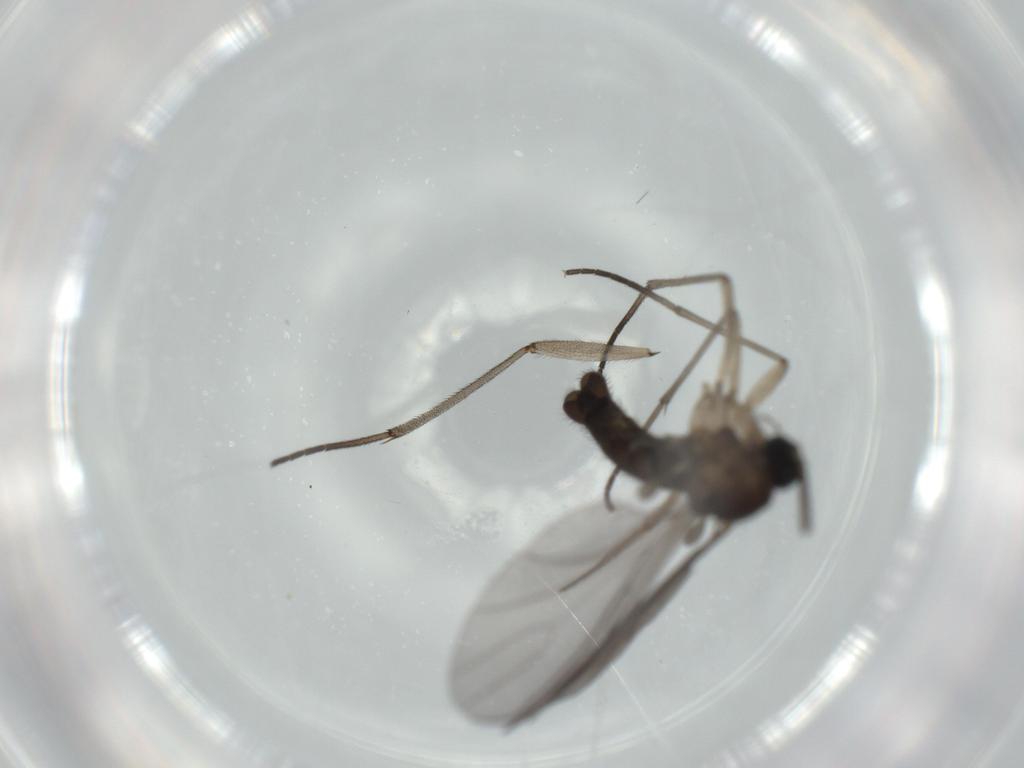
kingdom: Animalia
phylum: Arthropoda
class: Insecta
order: Diptera
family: Sciaridae
